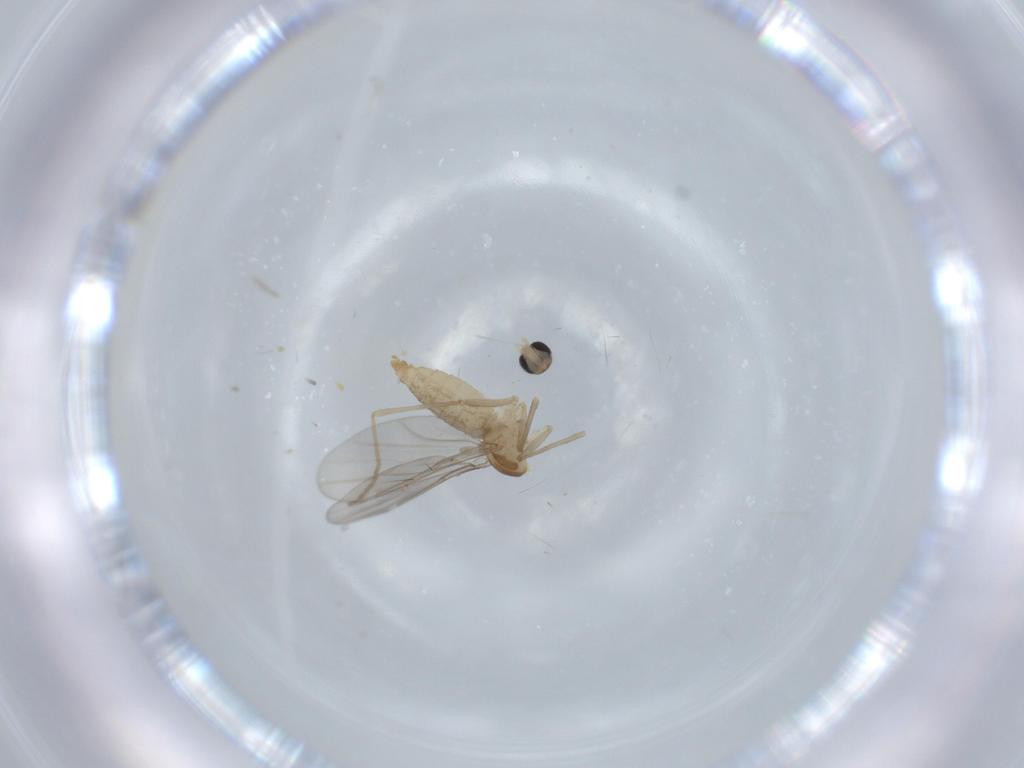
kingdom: Animalia
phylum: Arthropoda
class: Insecta
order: Diptera
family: Cecidomyiidae
